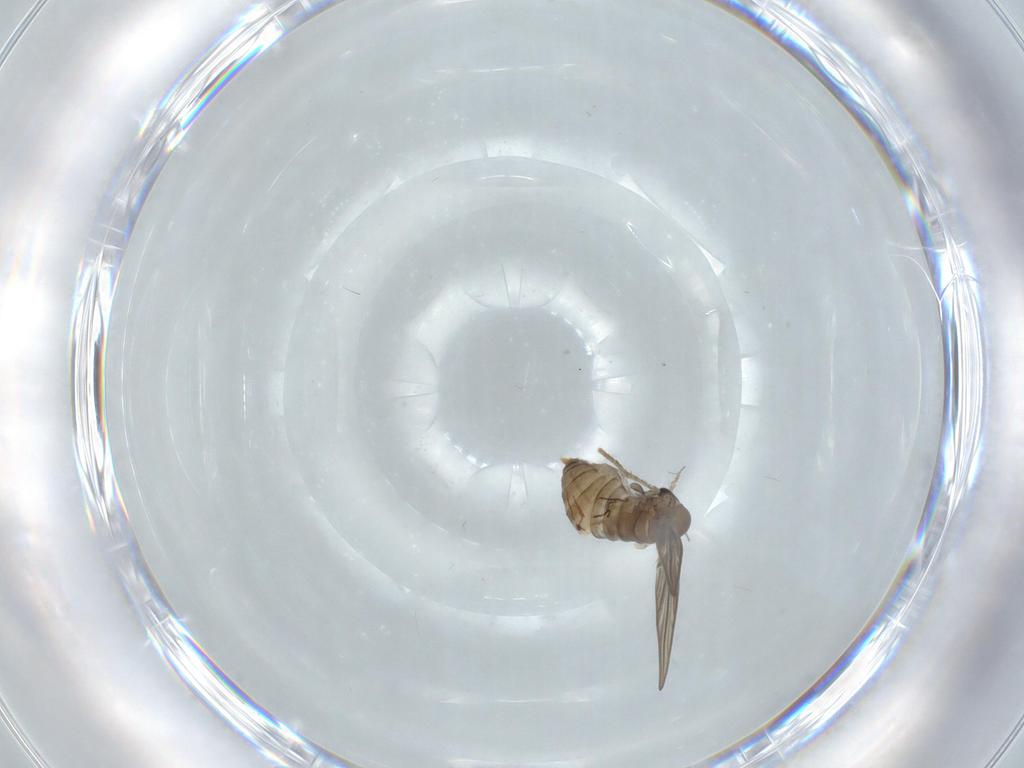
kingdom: Animalia
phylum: Arthropoda
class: Insecta
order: Diptera
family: Psychodidae
